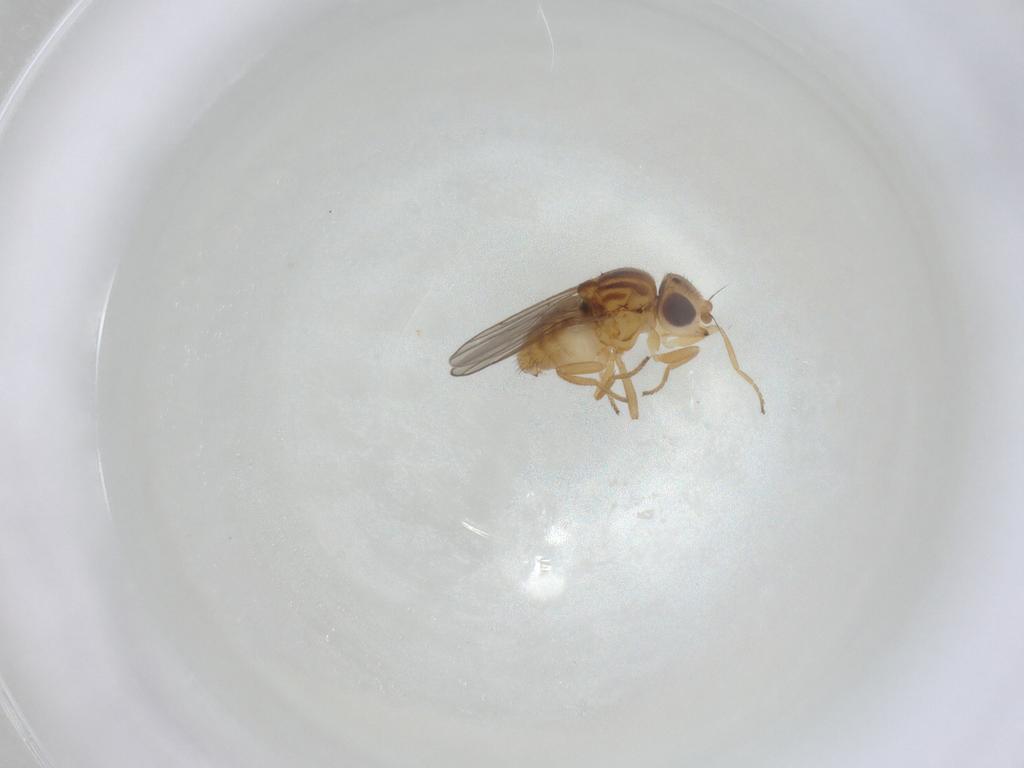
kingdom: Animalia
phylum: Arthropoda
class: Insecta
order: Diptera
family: Chloropidae
